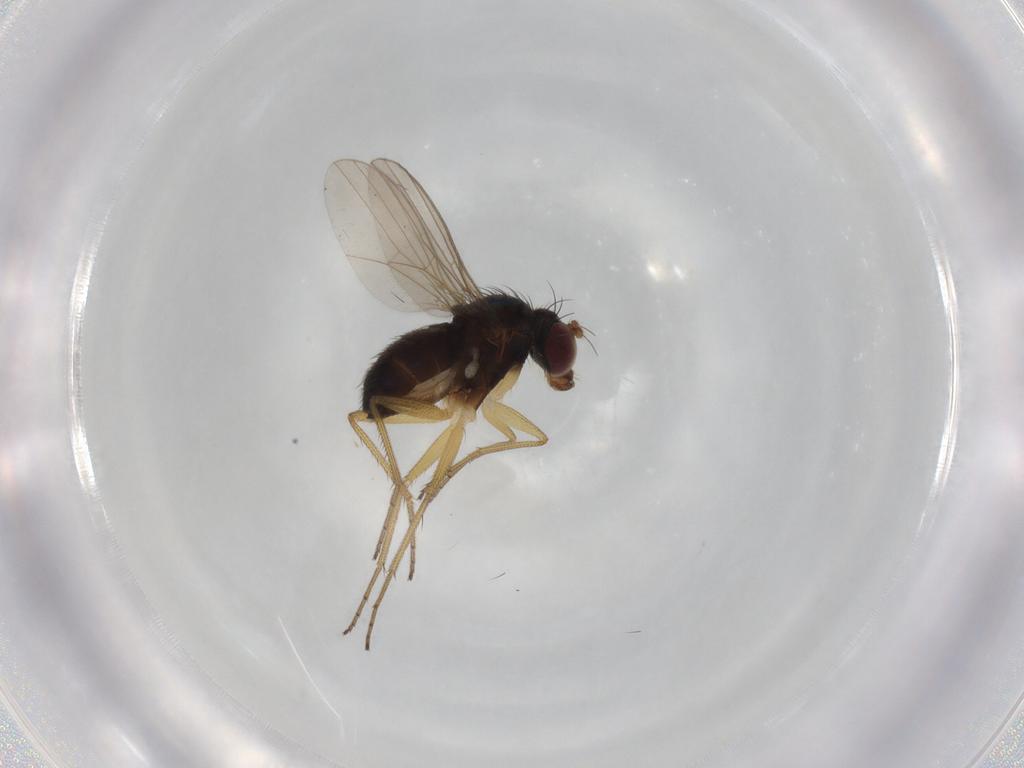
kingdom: Animalia
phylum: Arthropoda
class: Insecta
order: Diptera
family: Dolichopodidae
